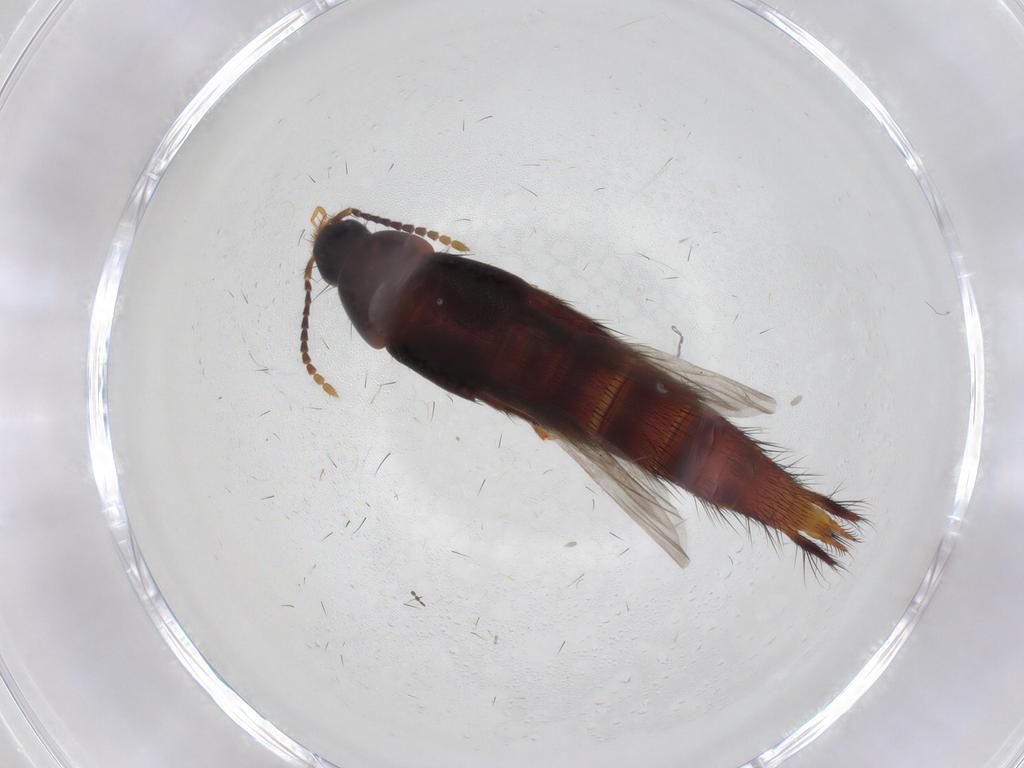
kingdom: Animalia
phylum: Arthropoda
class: Insecta
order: Coleoptera
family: Staphylinidae
